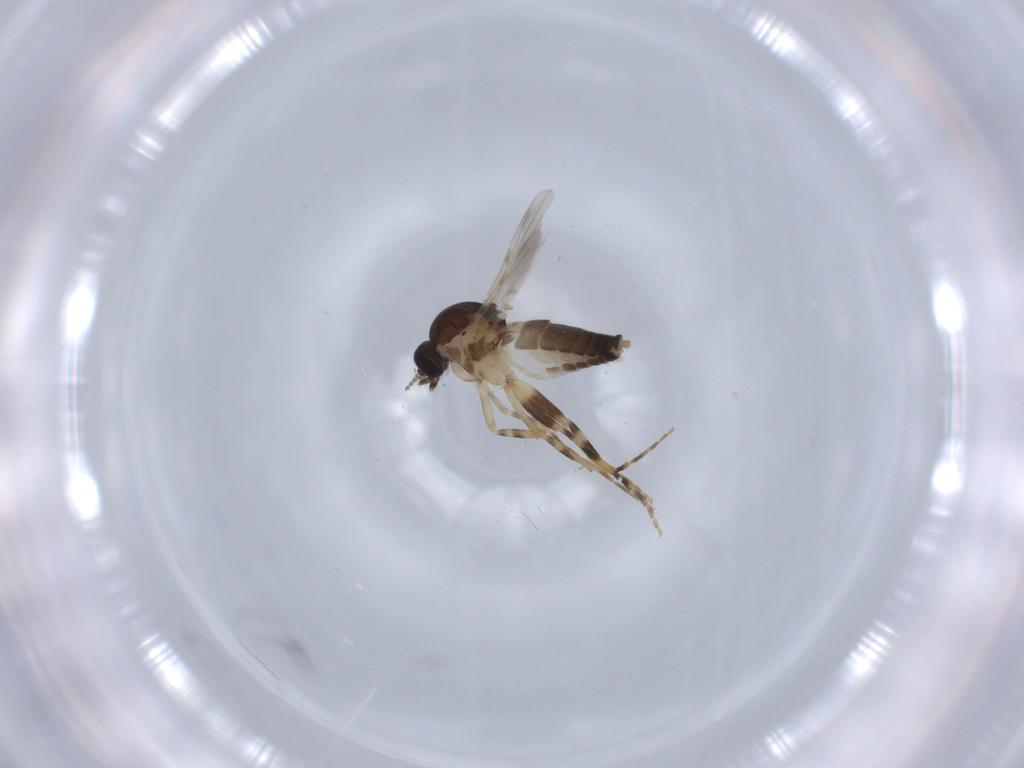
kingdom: Animalia
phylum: Arthropoda
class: Insecta
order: Diptera
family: Ceratopogonidae
